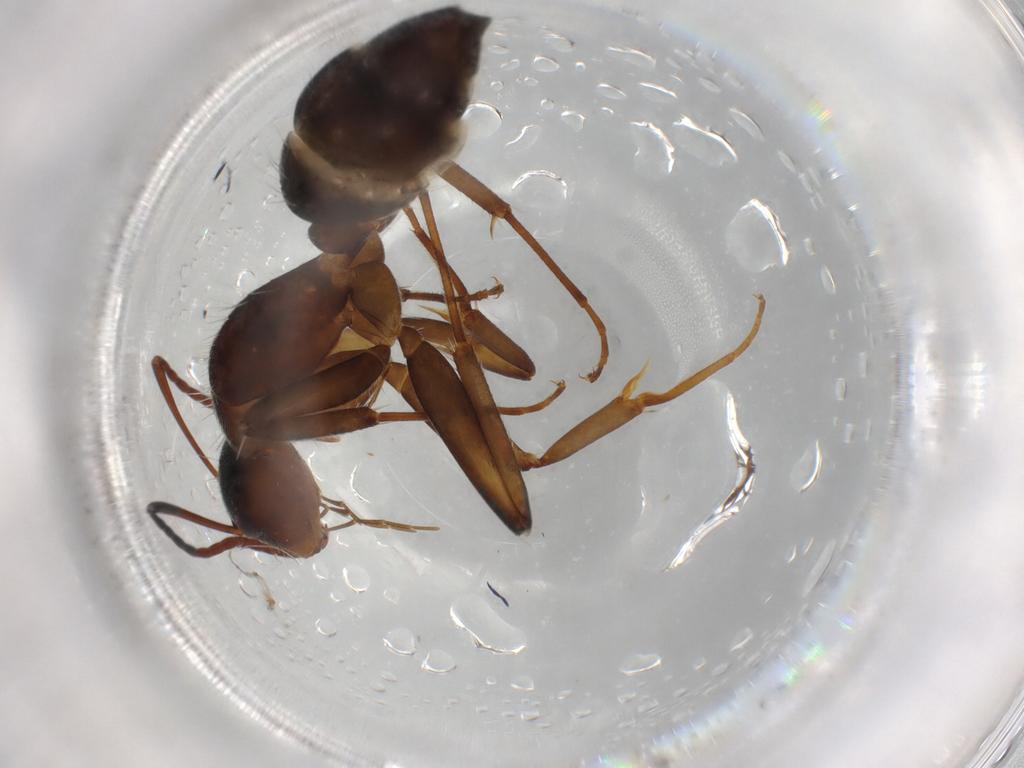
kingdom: Animalia
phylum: Arthropoda
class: Insecta
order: Hymenoptera
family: Formicidae
